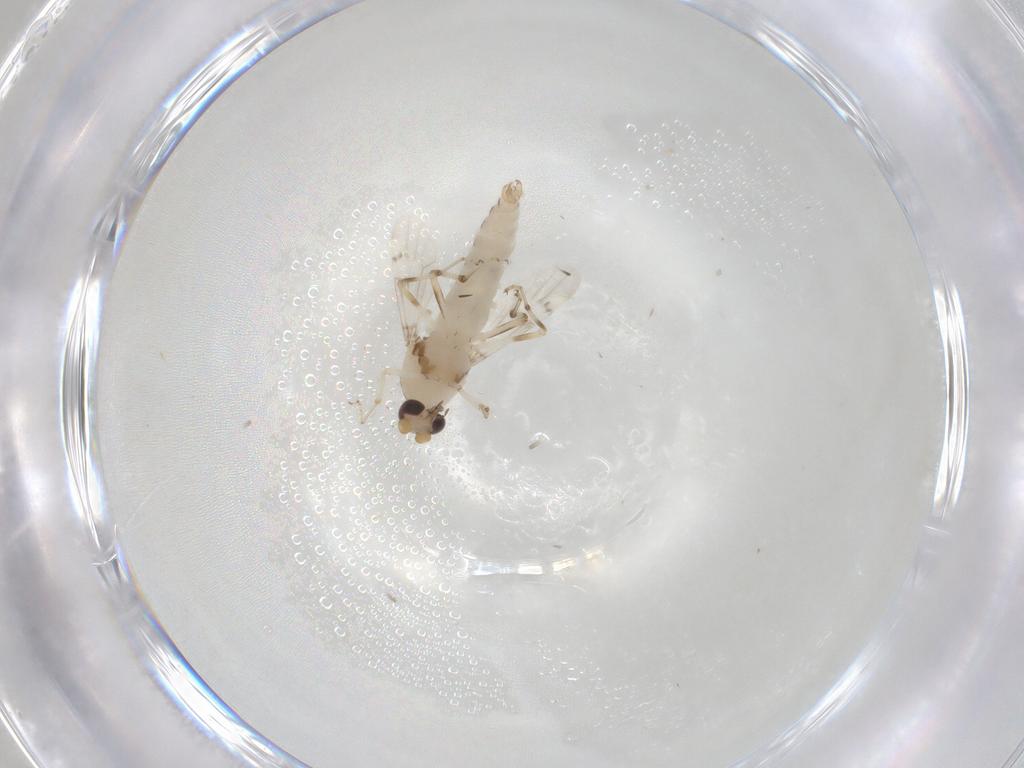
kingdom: Animalia
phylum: Arthropoda
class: Insecta
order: Diptera
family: Ceratopogonidae
